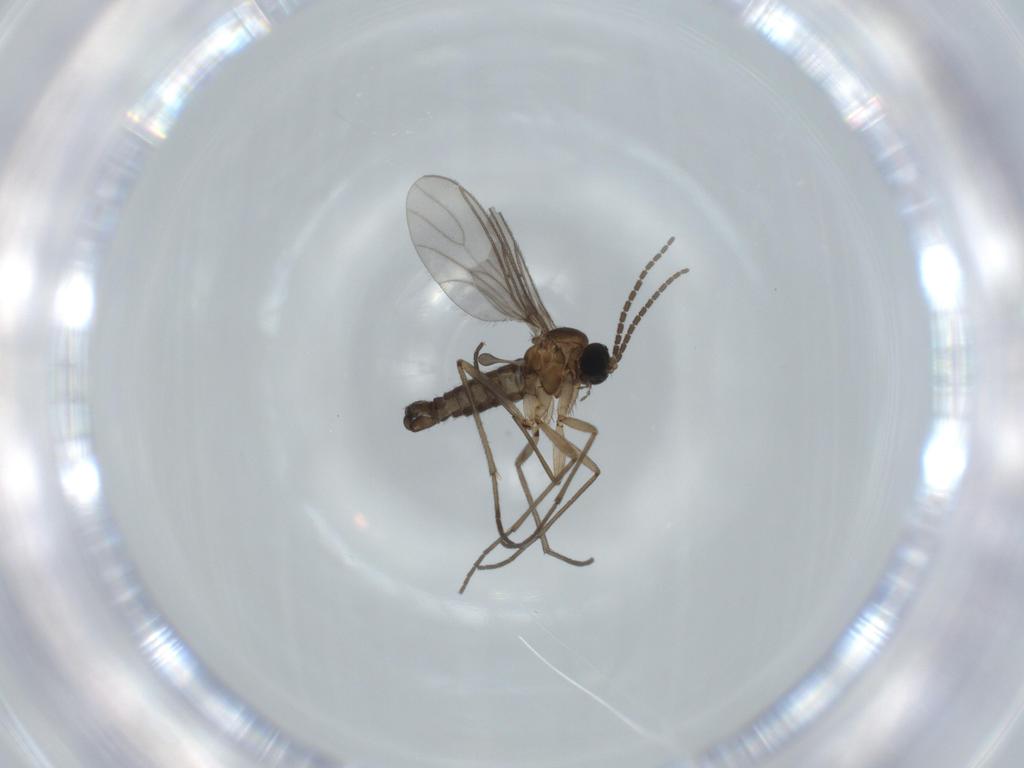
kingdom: Animalia
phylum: Arthropoda
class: Insecta
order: Diptera
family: Sciaridae
